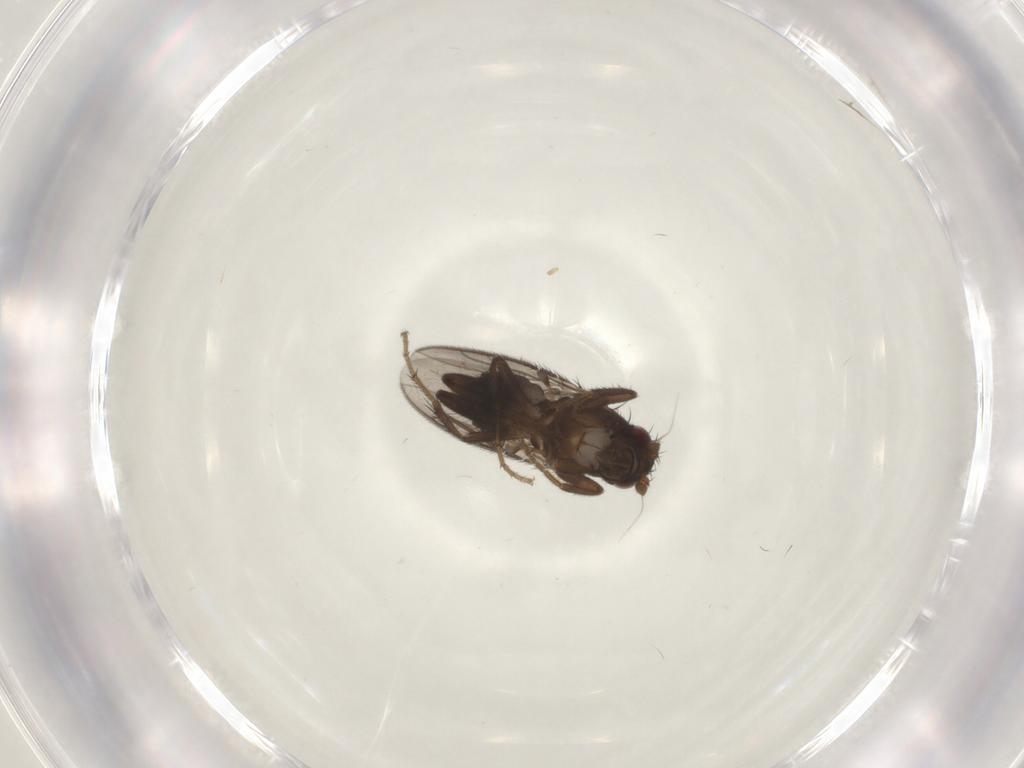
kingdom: Animalia
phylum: Arthropoda
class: Insecta
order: Diptera
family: Sciaridae
